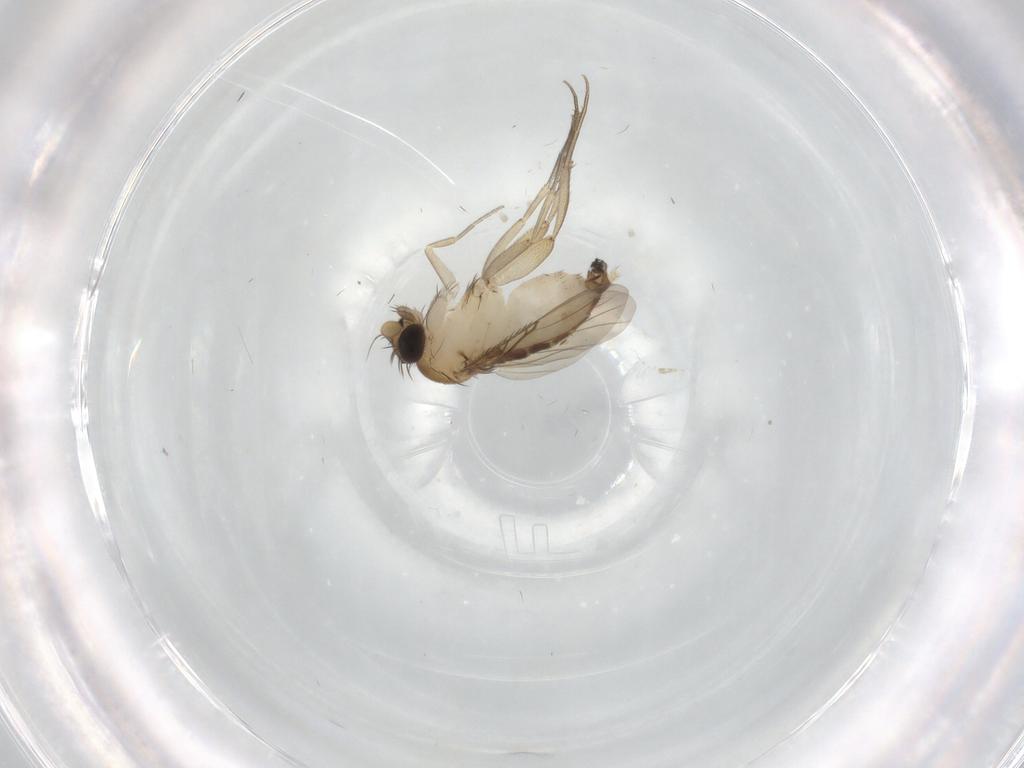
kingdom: Animalia
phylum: Arthropoda
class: Insecta
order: Diptera
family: Phoridae
